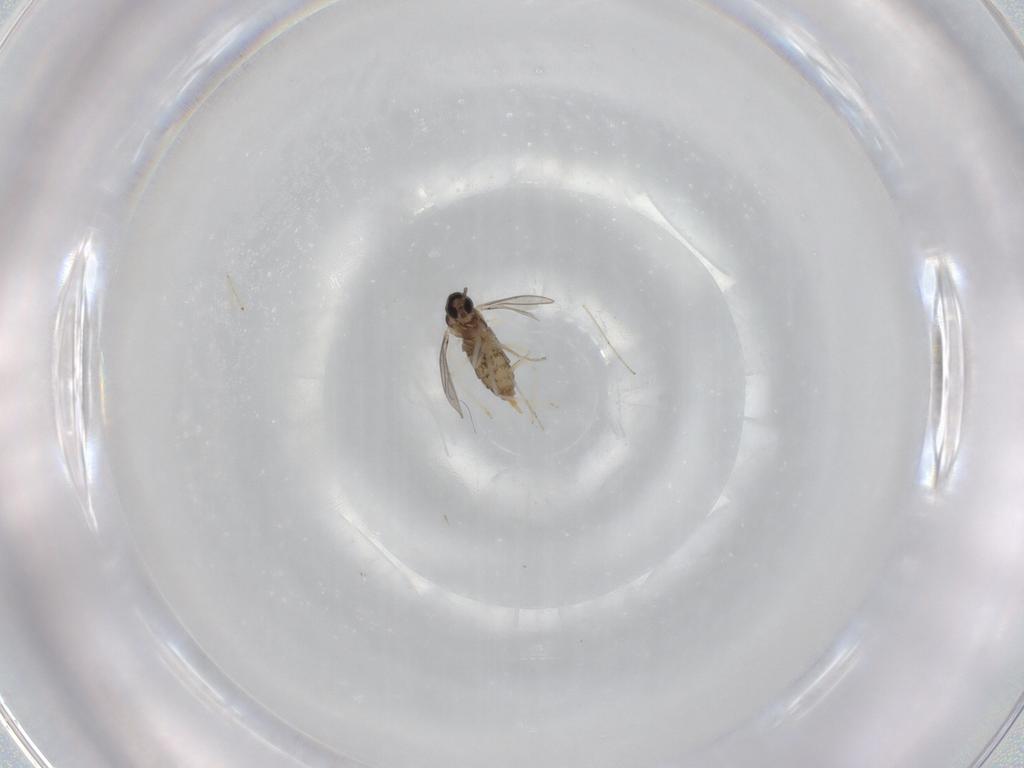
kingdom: Animalia
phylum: Arthropoda
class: Insecta
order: Diptera
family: Cecidomyiidae
